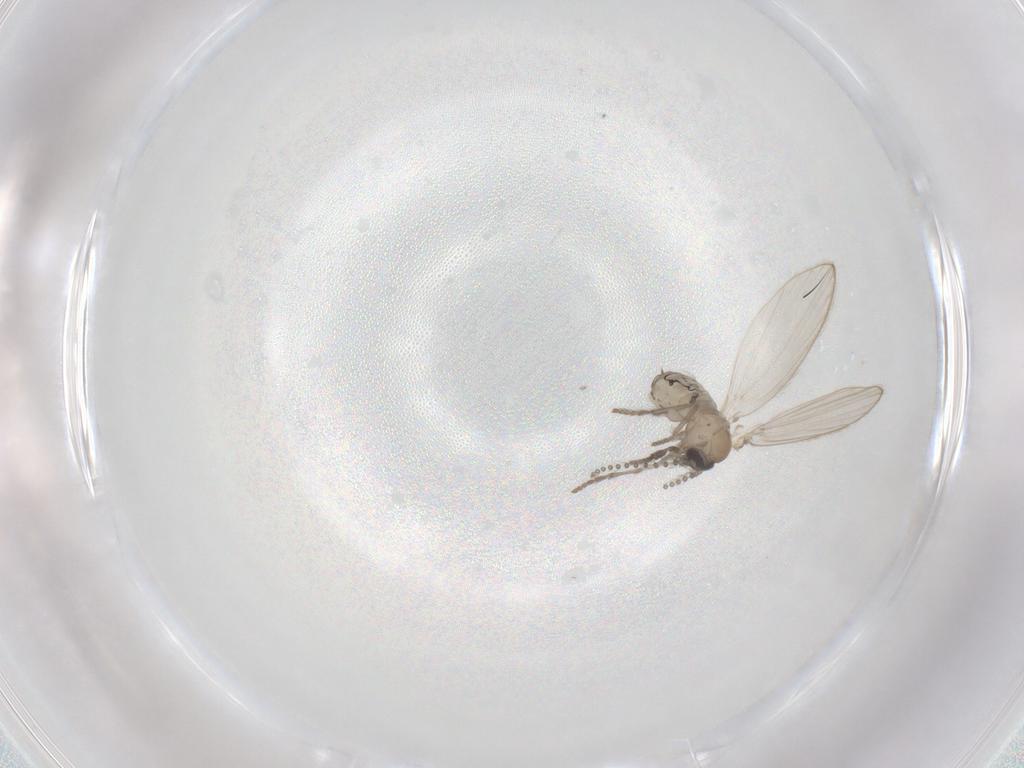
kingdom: Animalia
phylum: Arthropoda
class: Insecta
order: Diptera
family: Psychodidae
